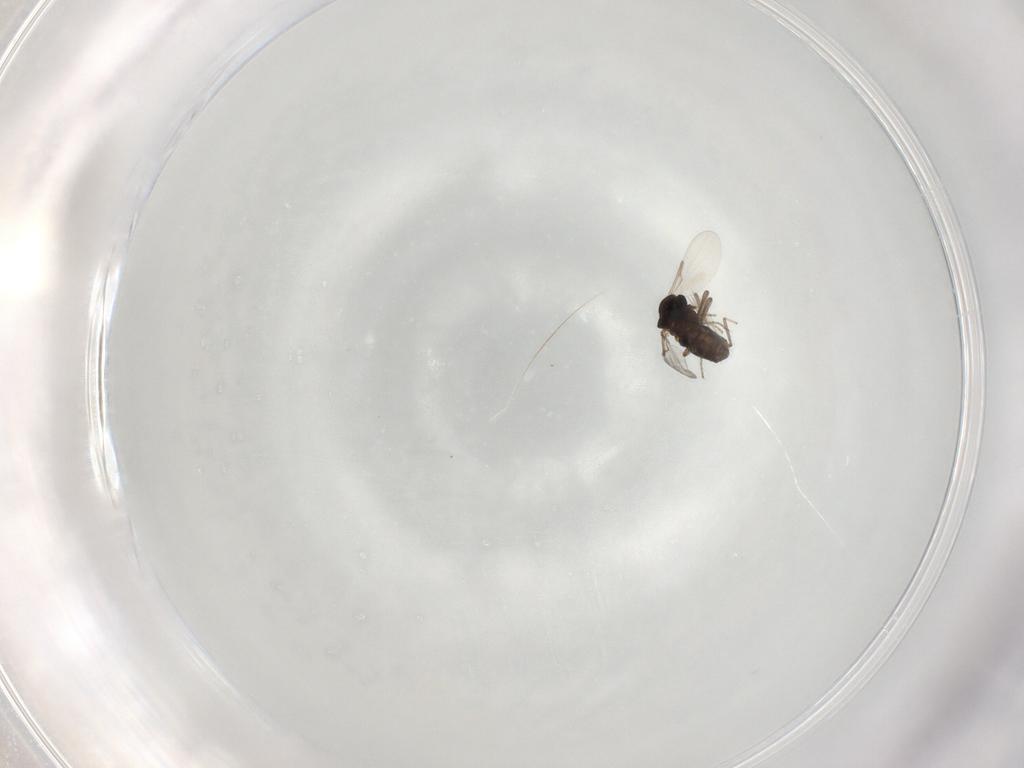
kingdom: Animalia
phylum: Arthropoda
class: Insecta
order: Diptera
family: Ceratopogonidae
